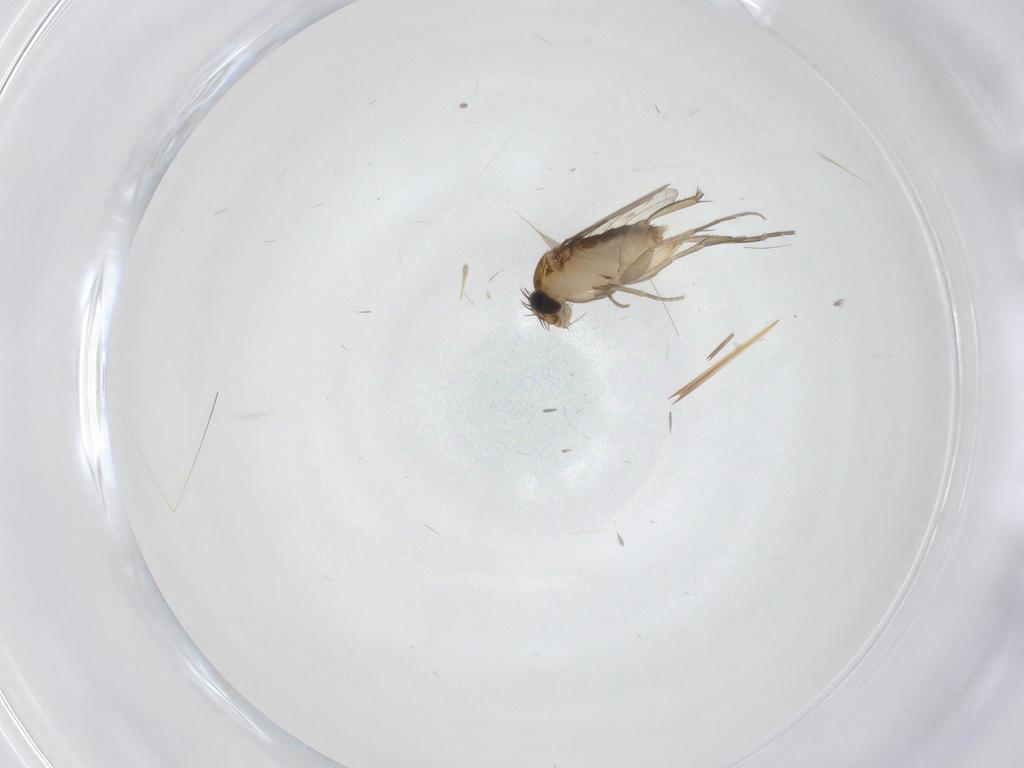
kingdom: Animalia
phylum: Arthropoda
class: Insecta
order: Diptera
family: Phoridae
